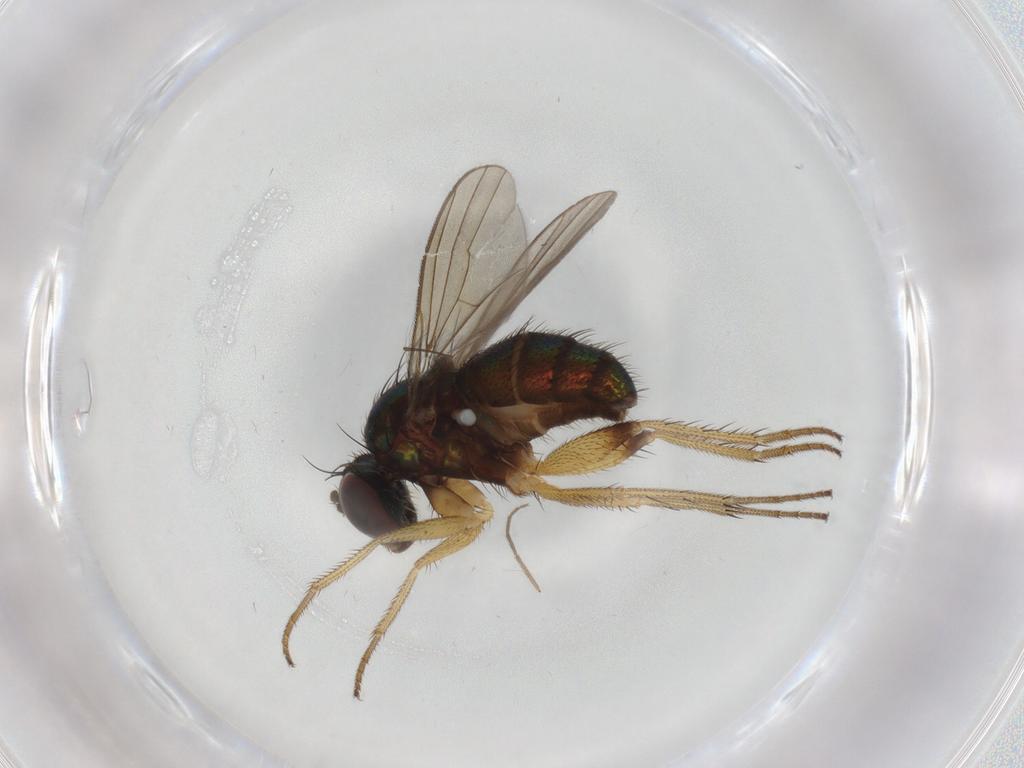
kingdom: Animalia
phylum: Arthropoda
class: Insecta
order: Diptera
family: Dolichopodidae
